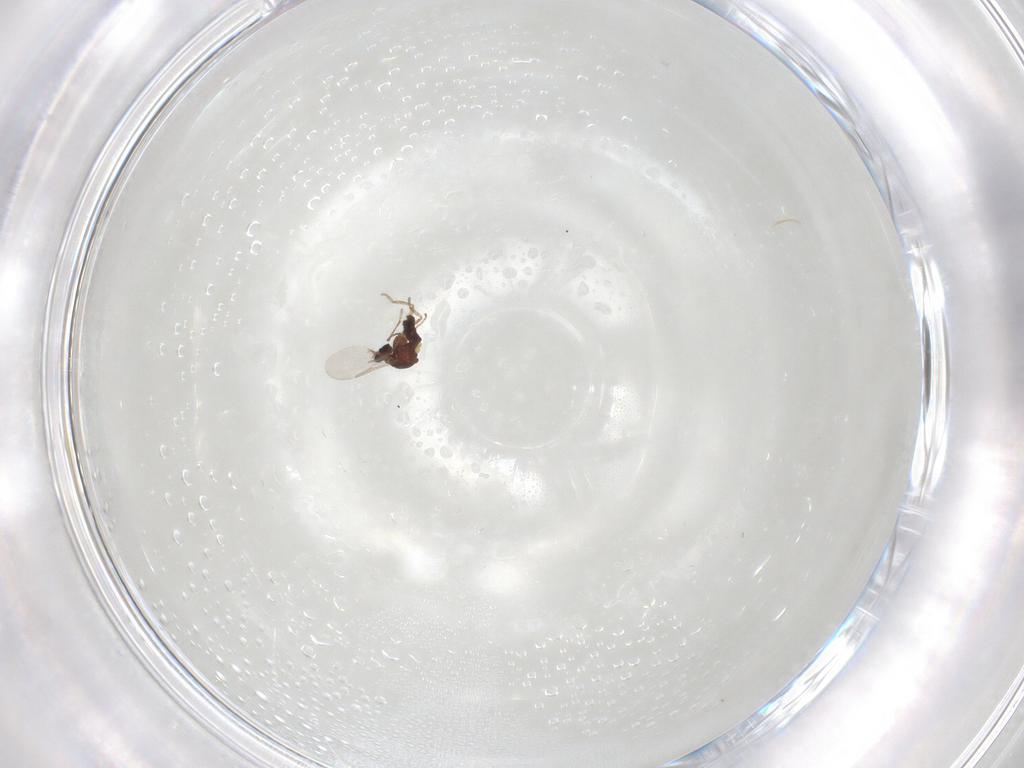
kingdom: Animalia
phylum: Arthropoda
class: Insecta
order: Diptera
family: Ceratopogonidae
